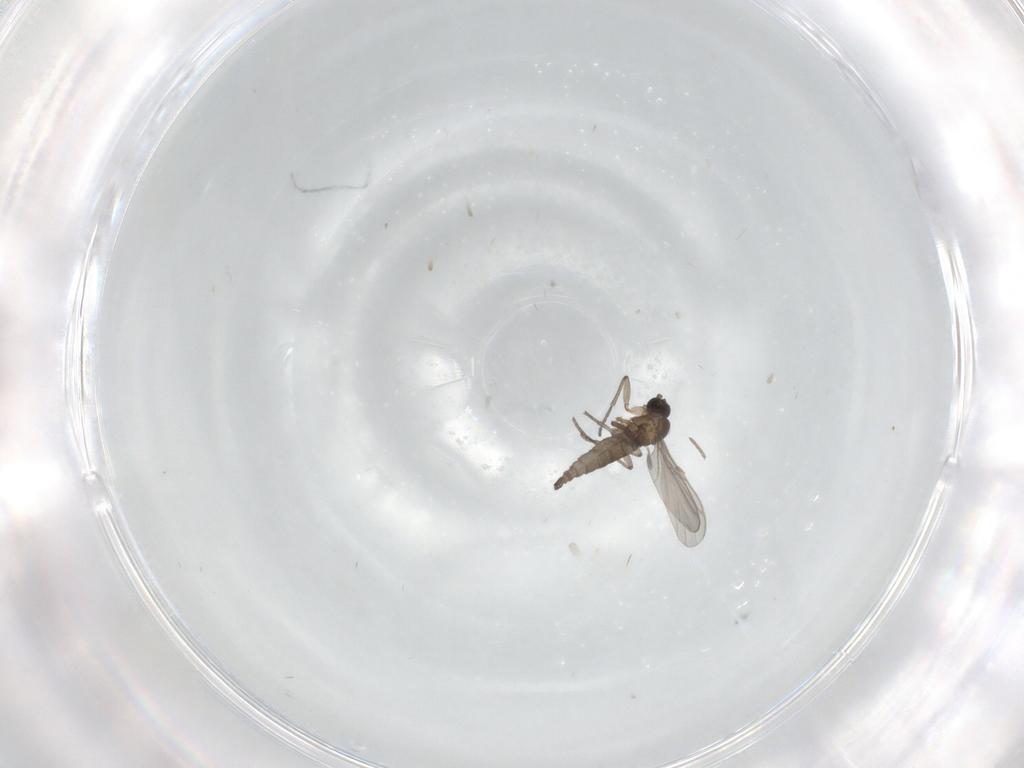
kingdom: Animalia
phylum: Arthropoda
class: Insecta
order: Diptera
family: Sciaridae
